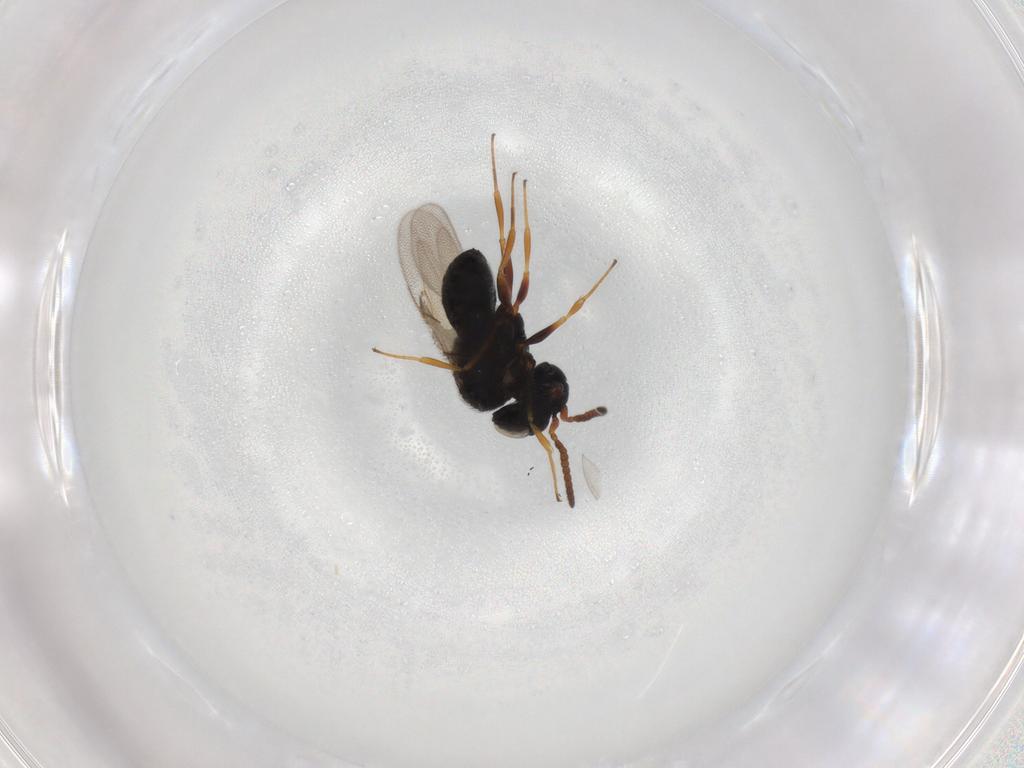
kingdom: Animalia
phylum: Arthropoda
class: Insecta
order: Hymenoptera
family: Scelionidae
